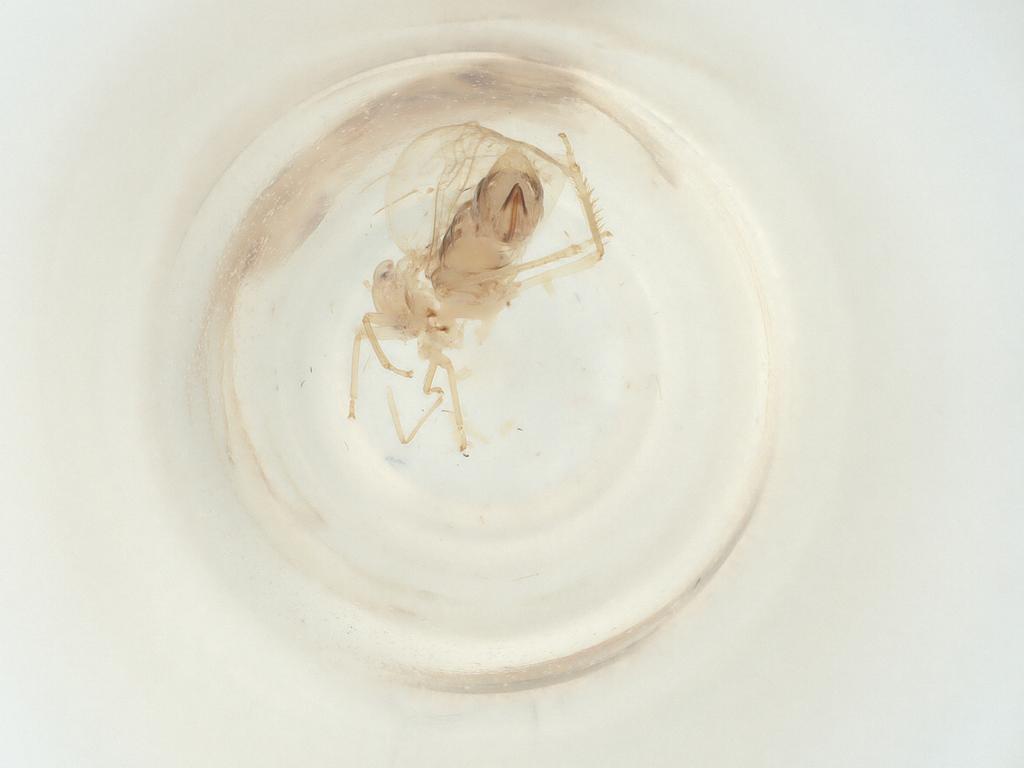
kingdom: Animalia
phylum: Arthropoda
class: Insecta
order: Hemiptera
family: Cicadellidae
